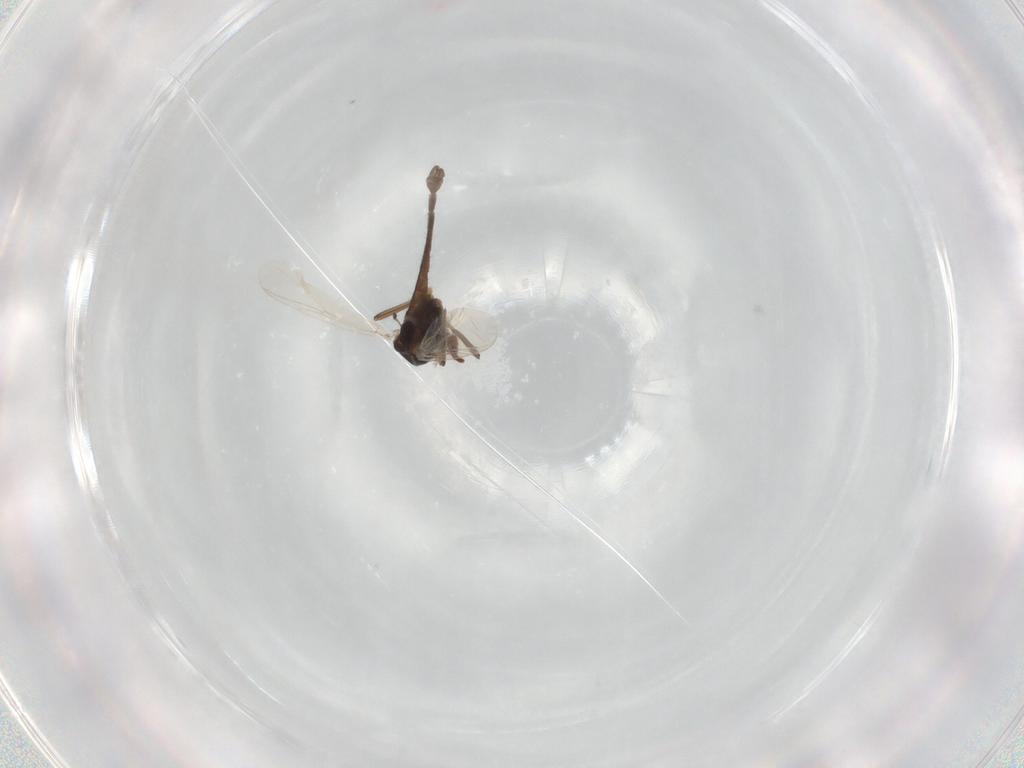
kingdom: Animalia
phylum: Arthropoda
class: Insecta
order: Diptera
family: Chironomidae
